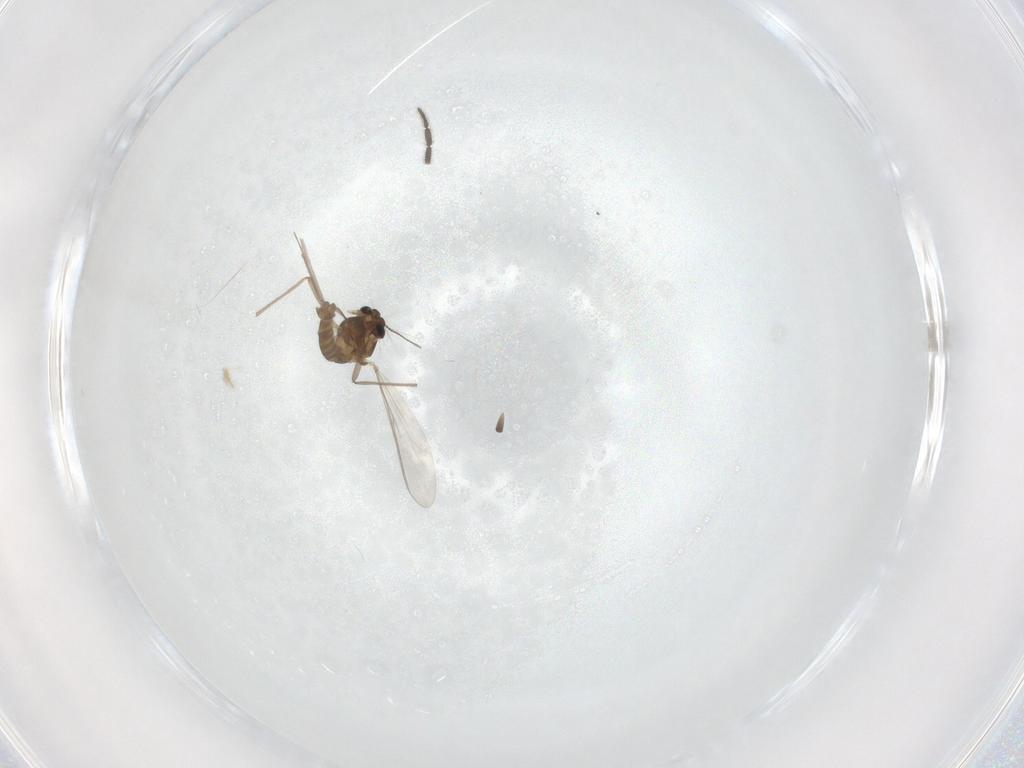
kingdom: Animalia
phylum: Arthropoda
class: Insecta
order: Diptera
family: Chironomidae
